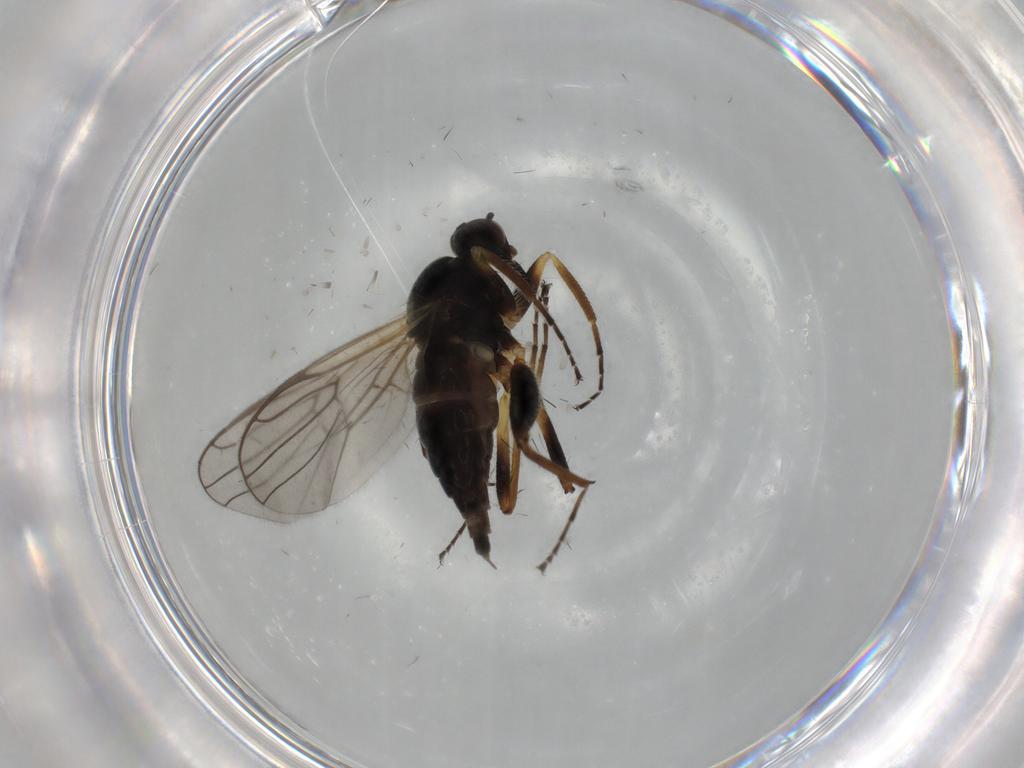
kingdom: Animalia
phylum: Arthropoda
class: Insecta
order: Diptera
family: Hybotidae
